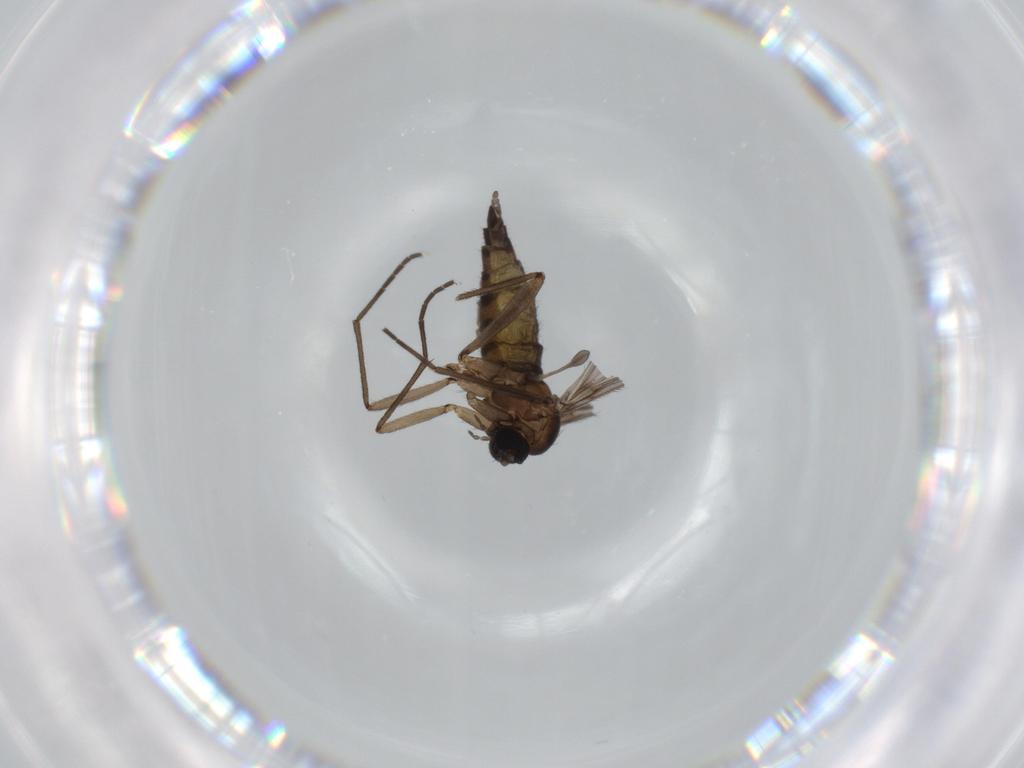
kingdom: Animalia
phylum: Arthropoda
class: Insecta
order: Diptera
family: Sciaridae
